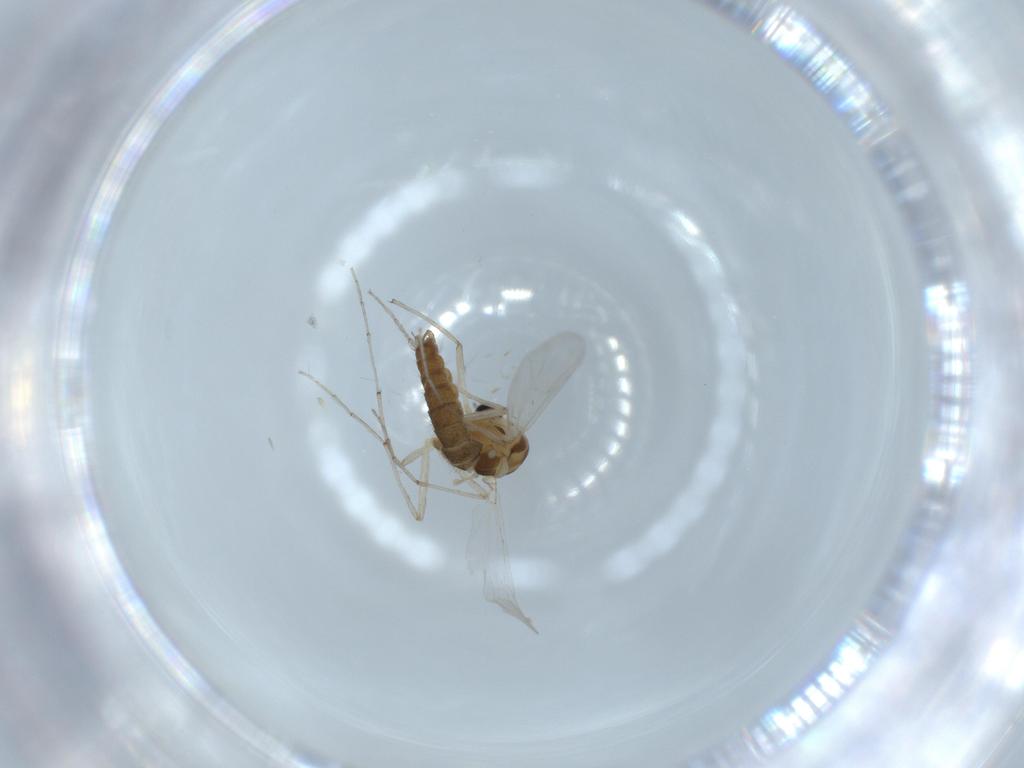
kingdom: Animalia
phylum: Arthropoda
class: Insecta
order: Diptera
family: Chironomidae
